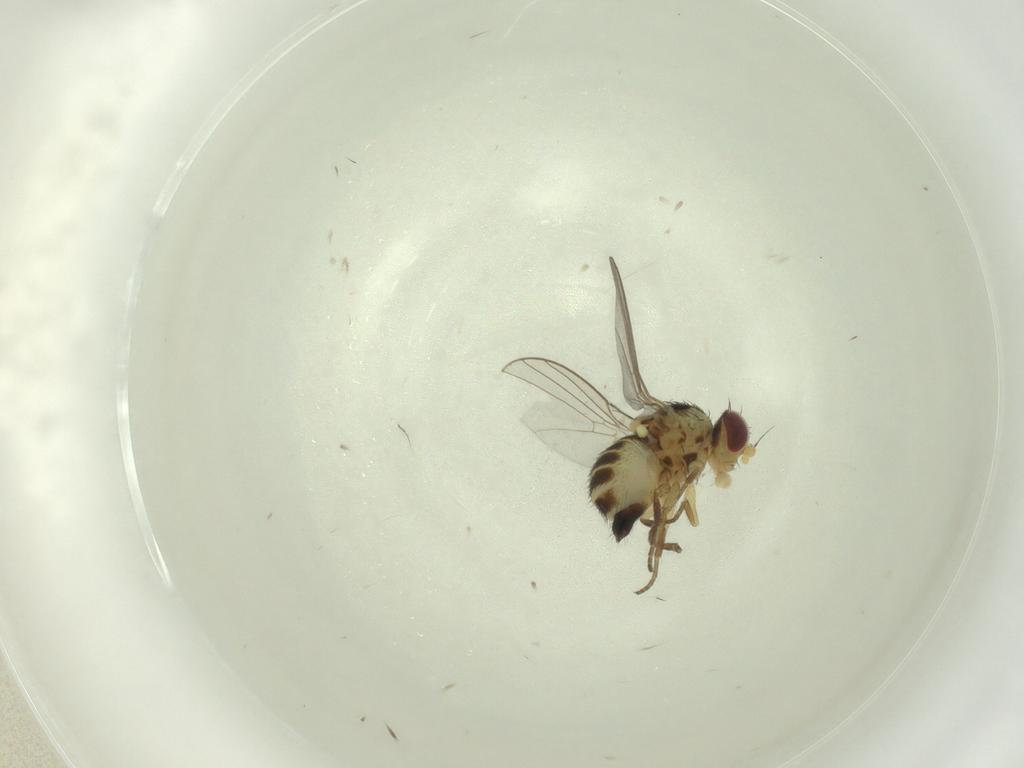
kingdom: Animalia
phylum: Arthropoda
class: Insecta
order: Diptera
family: Agromyzidae
